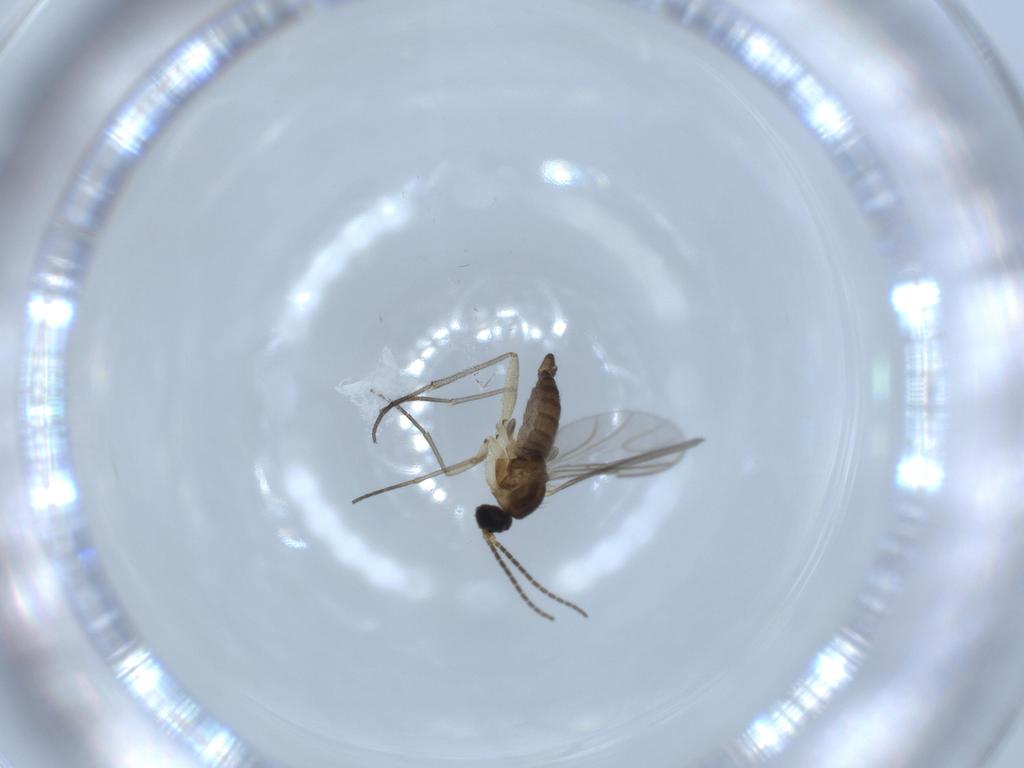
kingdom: Animalia
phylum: Arthropoda
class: Insecta
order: Diptera
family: Sciaridae
